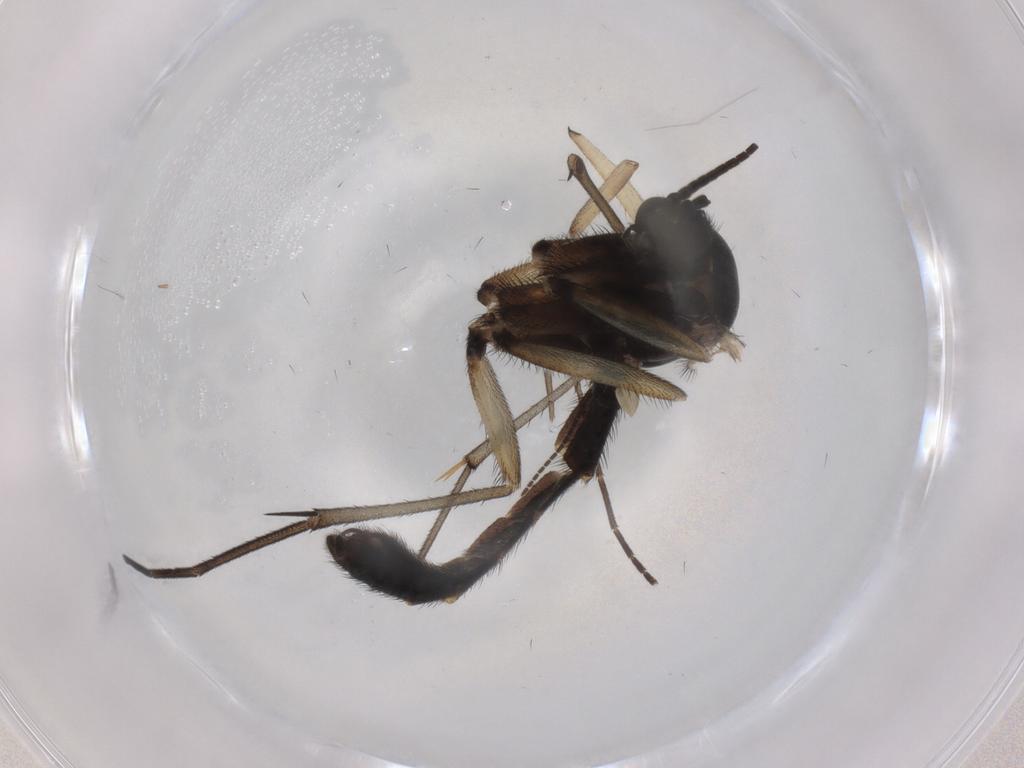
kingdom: Animalia
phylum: Arthropoda
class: Insecta
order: Diptera
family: Keroplatidae
